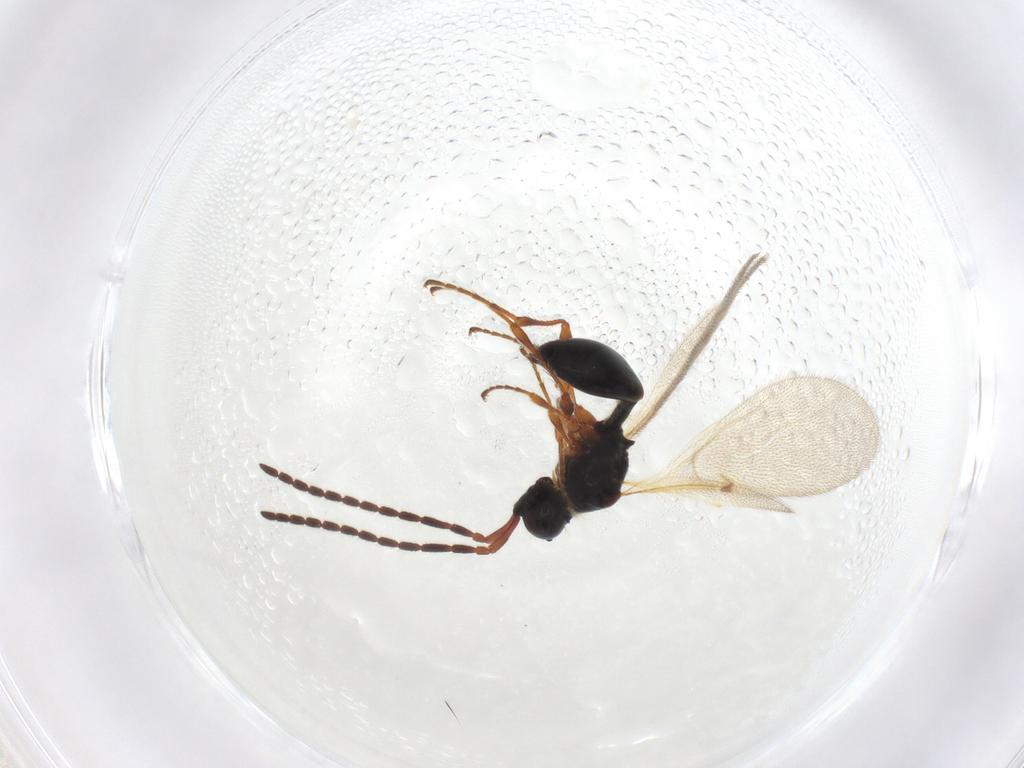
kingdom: Animalia
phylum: Arthropoda
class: Insecta
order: Hymenoptera
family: Diapriidae
